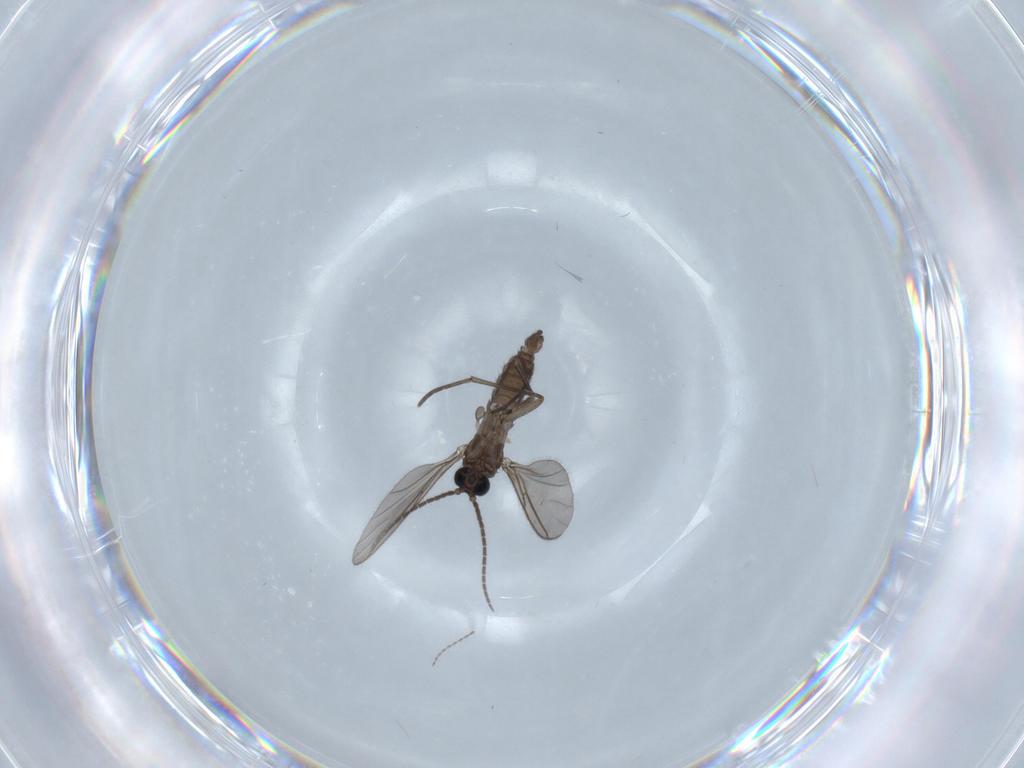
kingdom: Animalia
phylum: Arthropoda
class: Insecta
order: Diptera
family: Sciaridae
